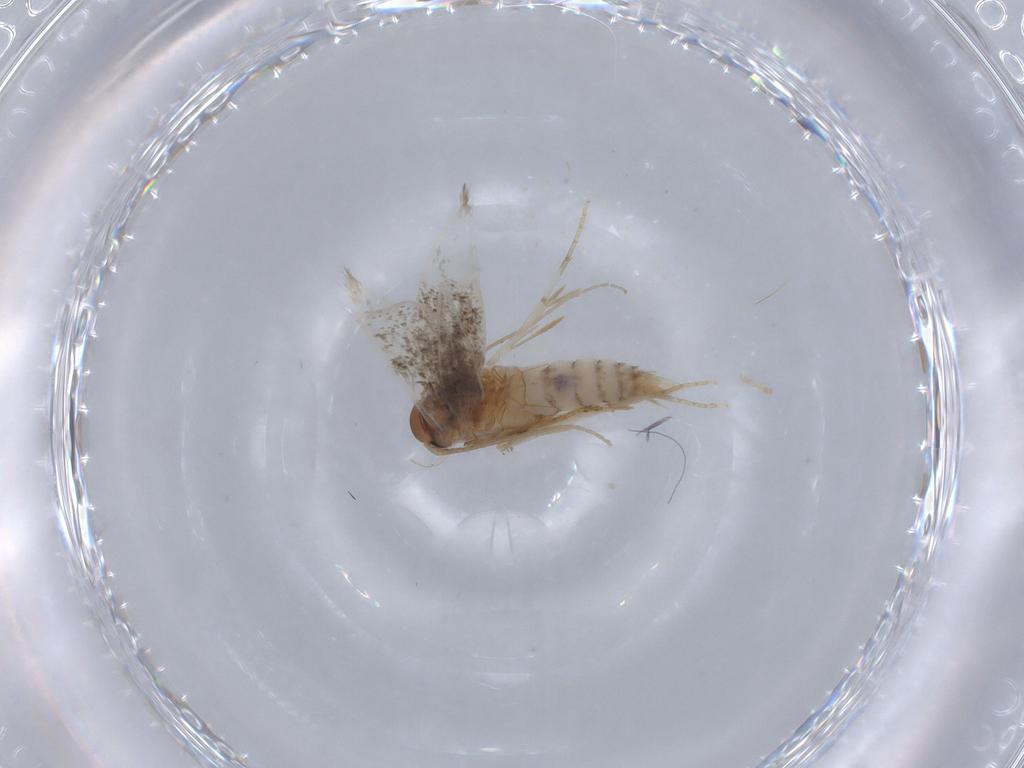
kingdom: Animalia
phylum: Arthropoda
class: Insecta
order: Lepidoptera
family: Elachistidae
